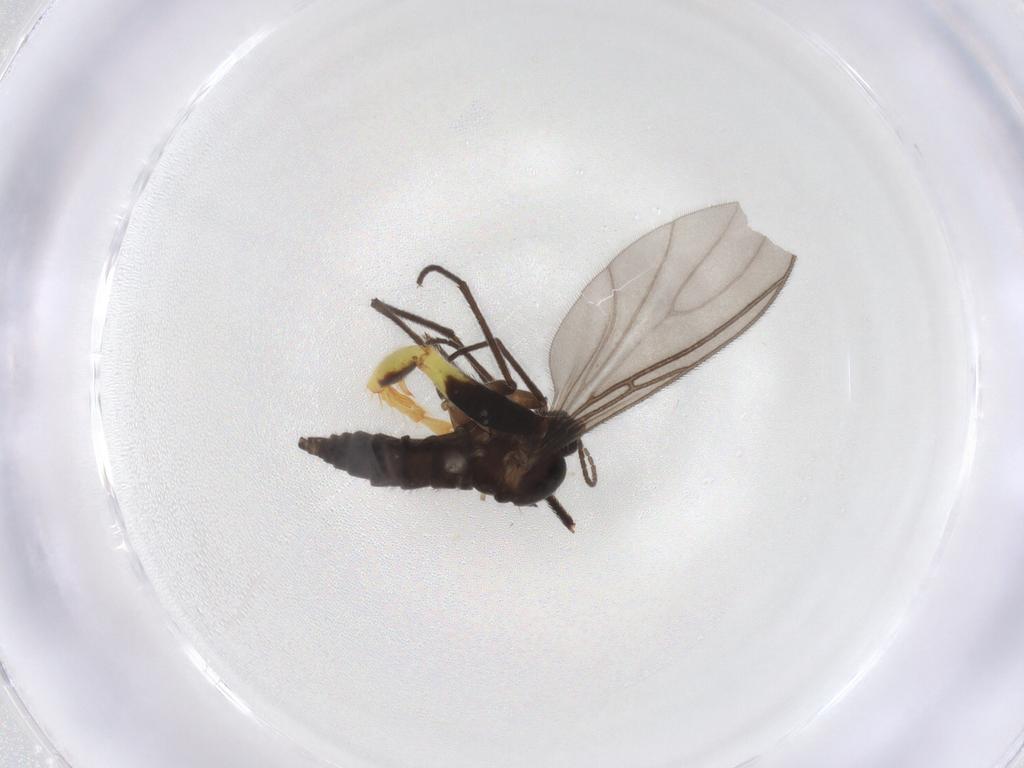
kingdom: Animalia
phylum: Arthropoda
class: Insecta
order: Diptera
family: Sciaridae
